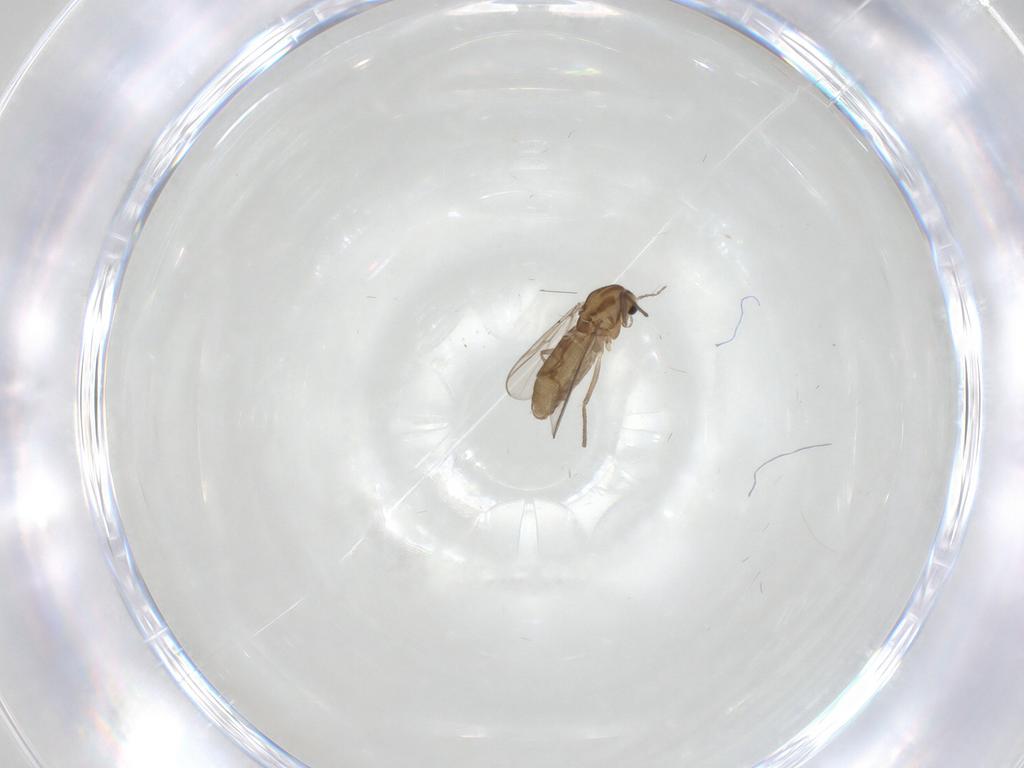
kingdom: Animalia
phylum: Arthropoda
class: Insecta
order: Diptera
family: Chironomidae
